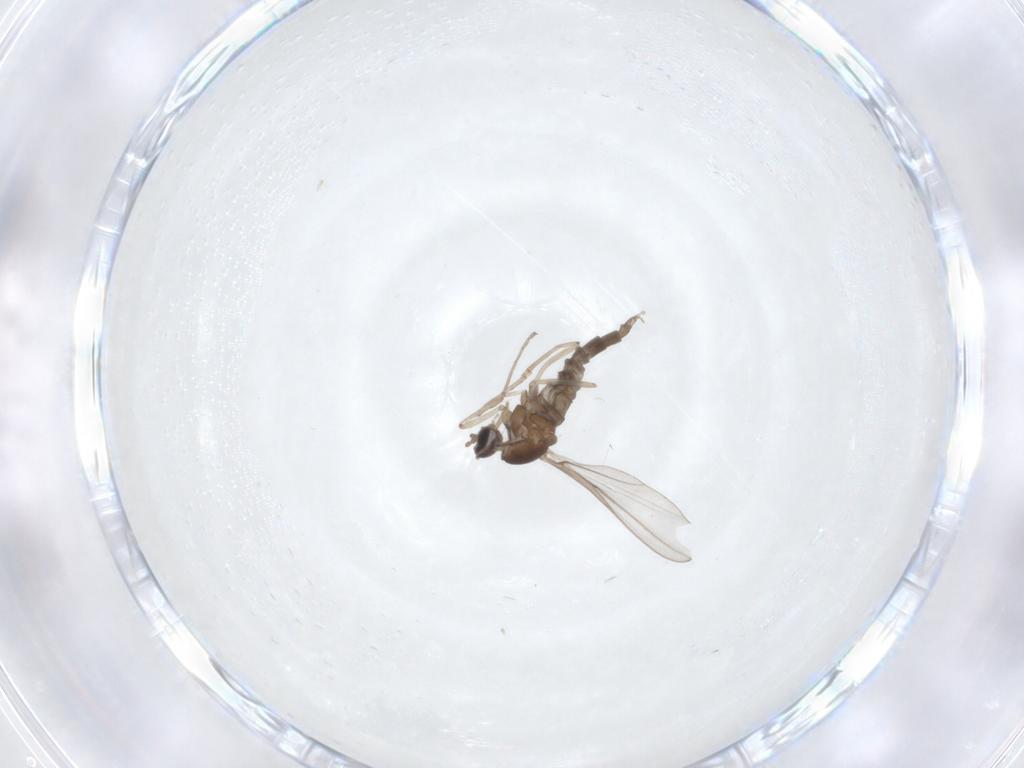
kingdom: Animalia
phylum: Arthropoda
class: Insecta
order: Diptera
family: Cecidomyiidae
